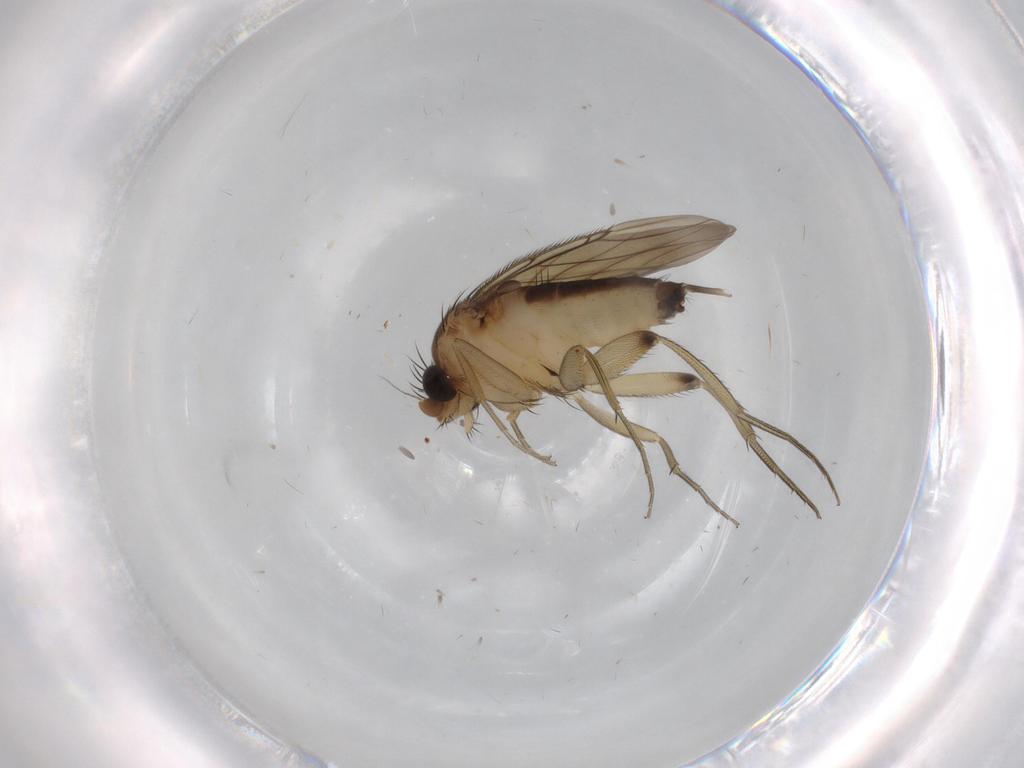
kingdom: Animalia
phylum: Arthropoda
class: Insecta
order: Diptera
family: Phoridae
